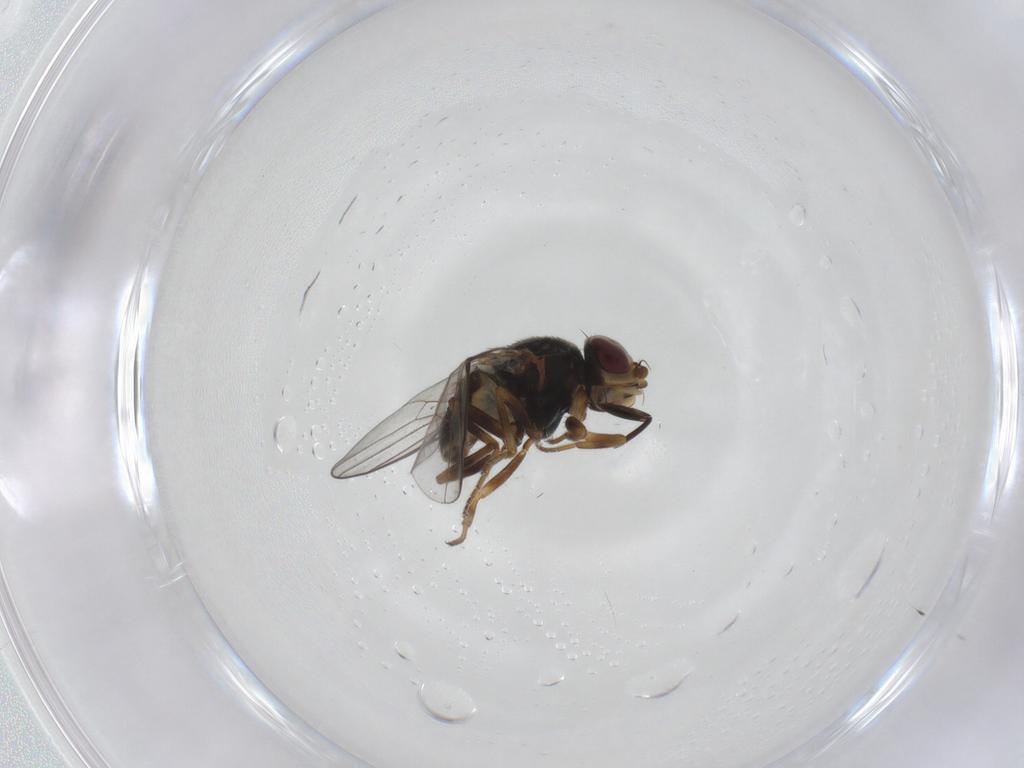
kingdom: Animalia
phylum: Arthropoda
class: Insecta
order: Diptera
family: Chloropidae
